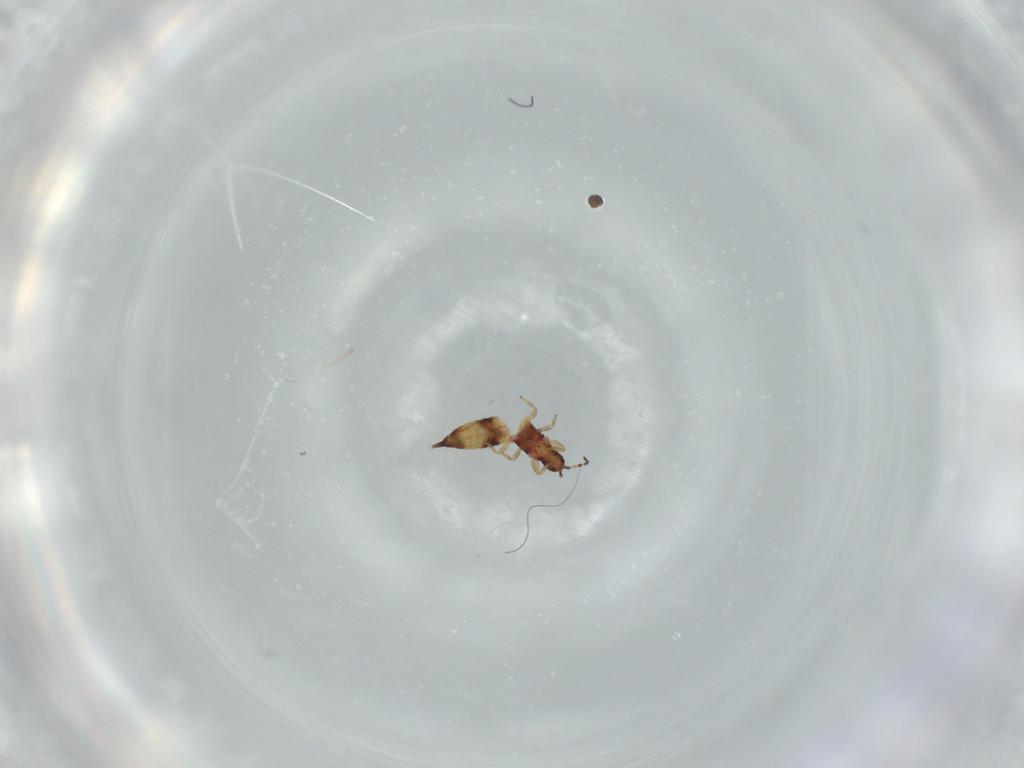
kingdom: Animalia
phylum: Arthropoda
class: Insecta
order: Thysanoptera
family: Phlaeothripidae
